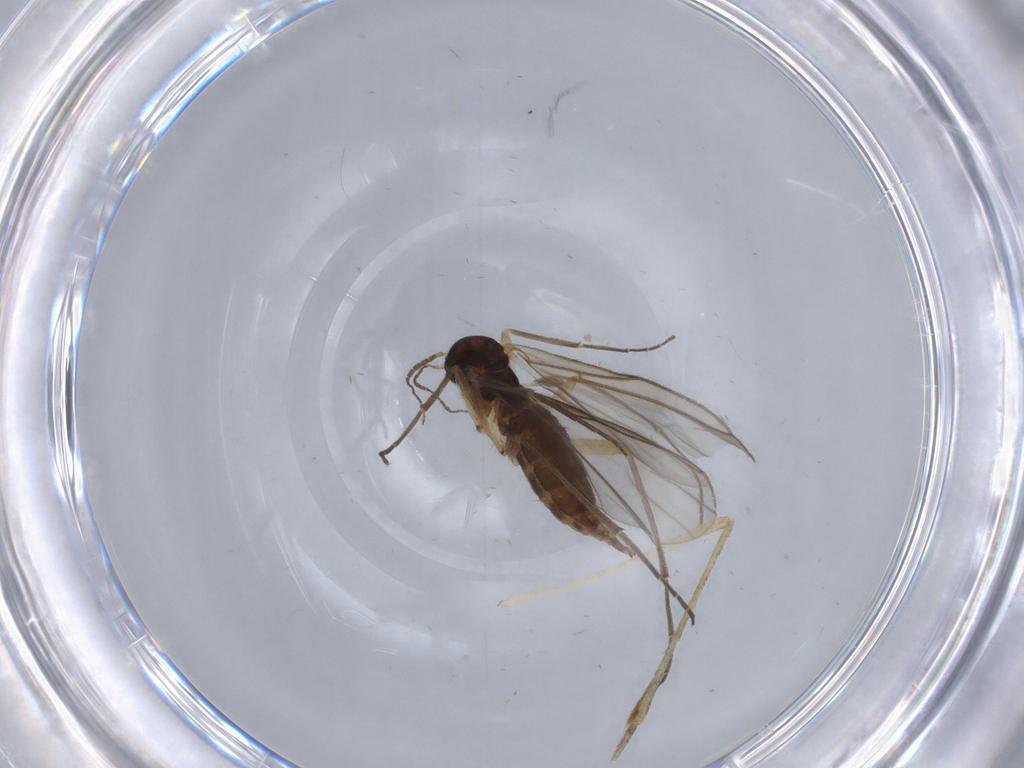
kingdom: Animalia
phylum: Arthropoda
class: Insecta
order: Diptera
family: Sciaridae
